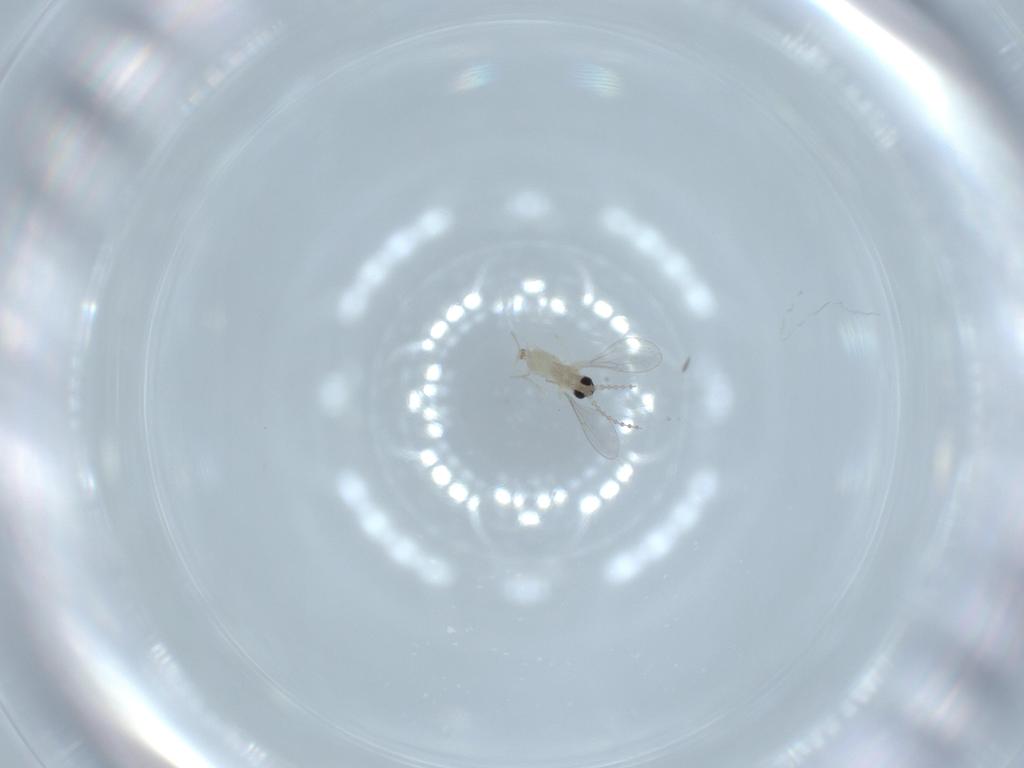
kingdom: Animalia
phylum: Arthropoda
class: Insecta
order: Diptera
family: Cecidomyiidae
